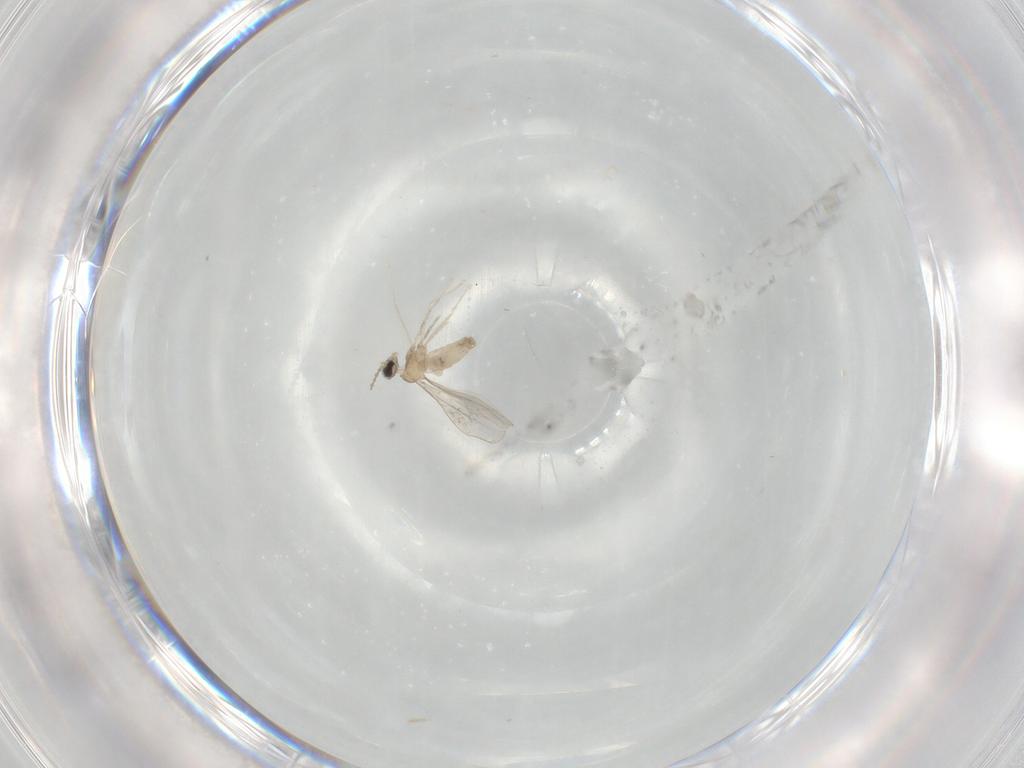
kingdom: Animalia
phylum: Arthropoda
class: Insecta
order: Diptera
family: Cecidomyiidae
